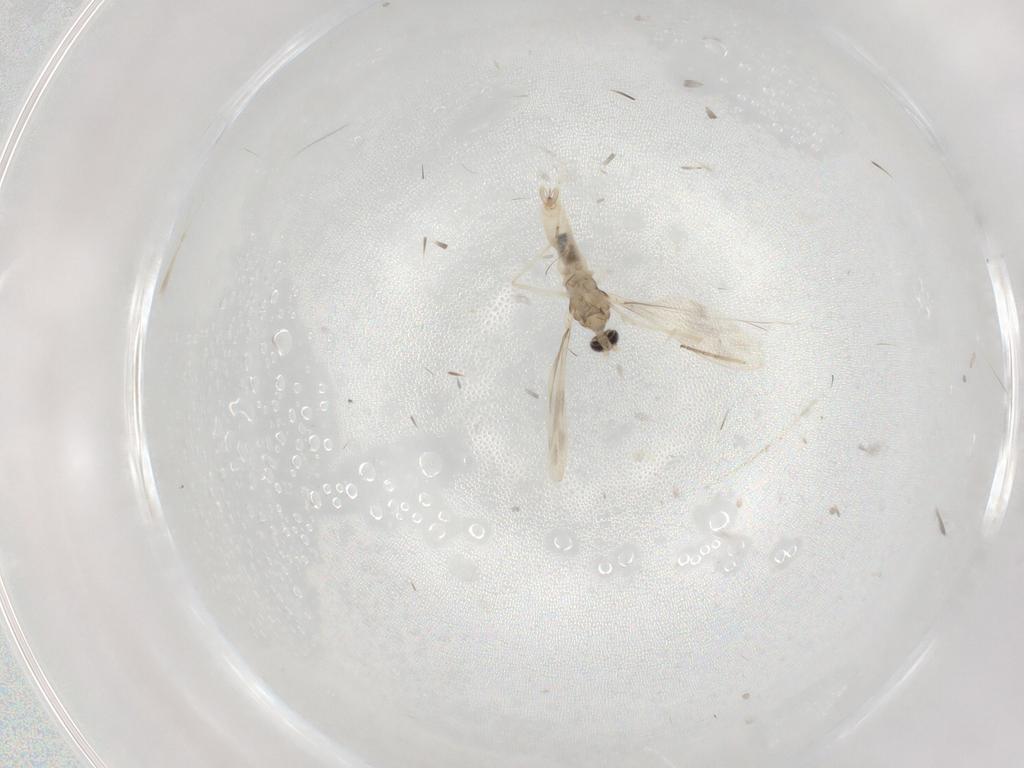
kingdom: Animalia
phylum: Arthropoda
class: Insecta
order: Diptera
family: Cecidomyiidae
